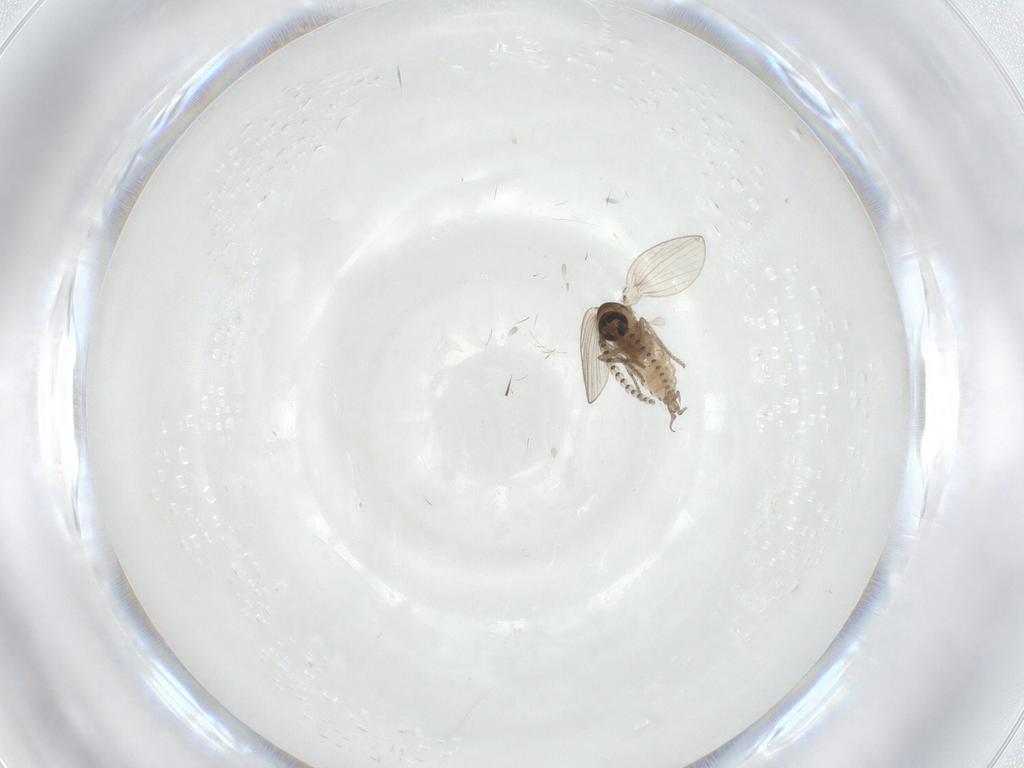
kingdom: Animalia
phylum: Arthropoda
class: Insecta
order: Diptera
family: Psychodidae
